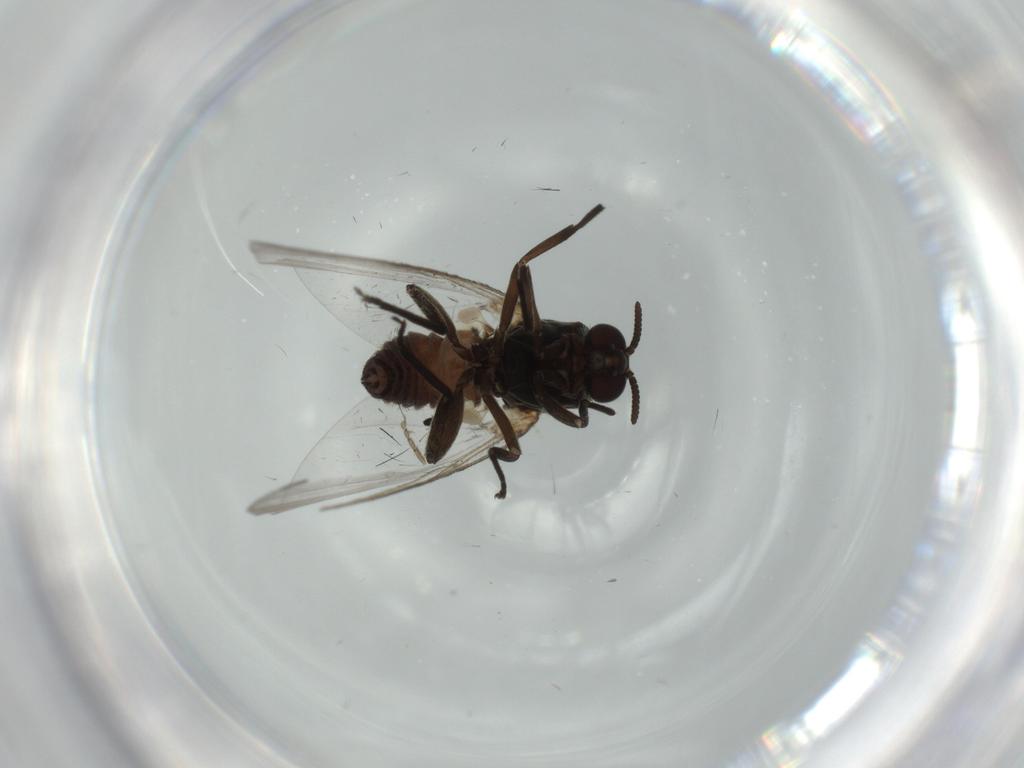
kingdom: Animalia
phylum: Arthropoda
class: Insecta
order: Diptera
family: Chironomidae
